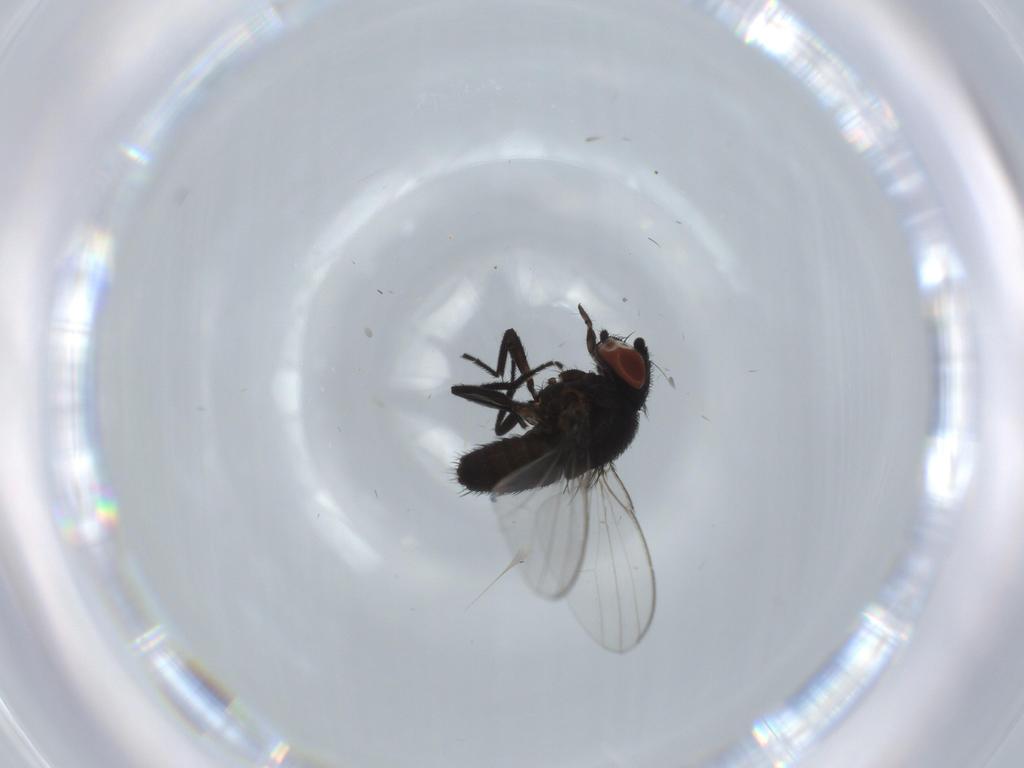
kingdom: Animalia
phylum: Arthropoda
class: Insecta
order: Diptera
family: Milichiidae
